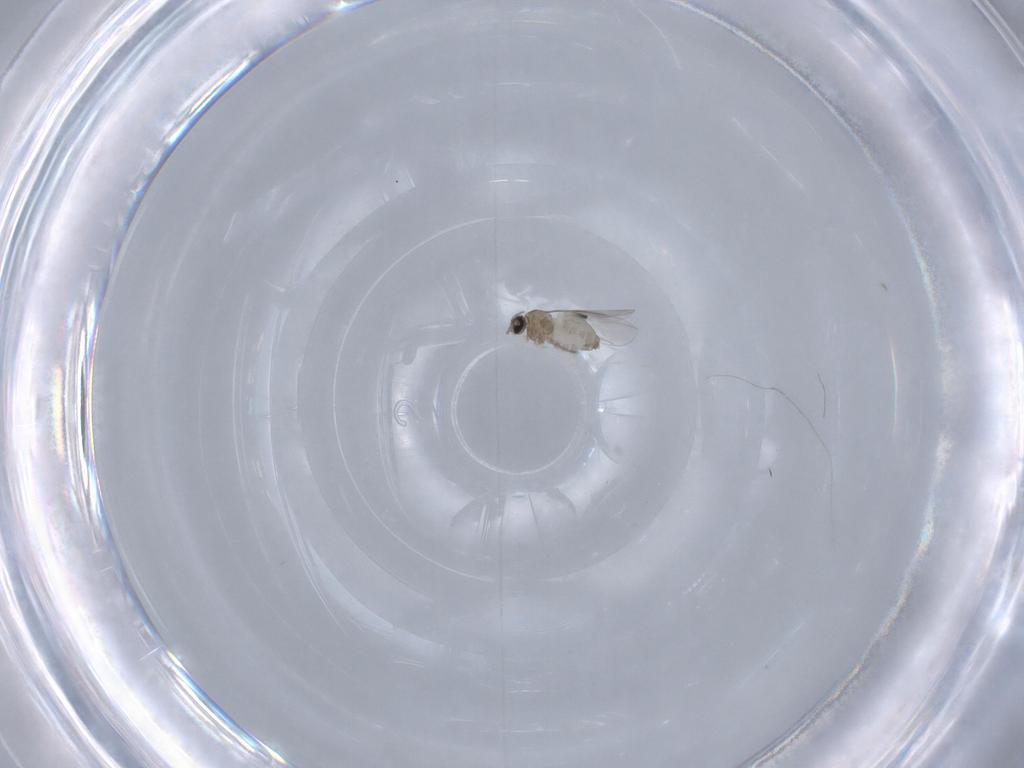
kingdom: Animalia
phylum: Arthropoda
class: Insecta
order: Diptera
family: Cecidomyiidae
